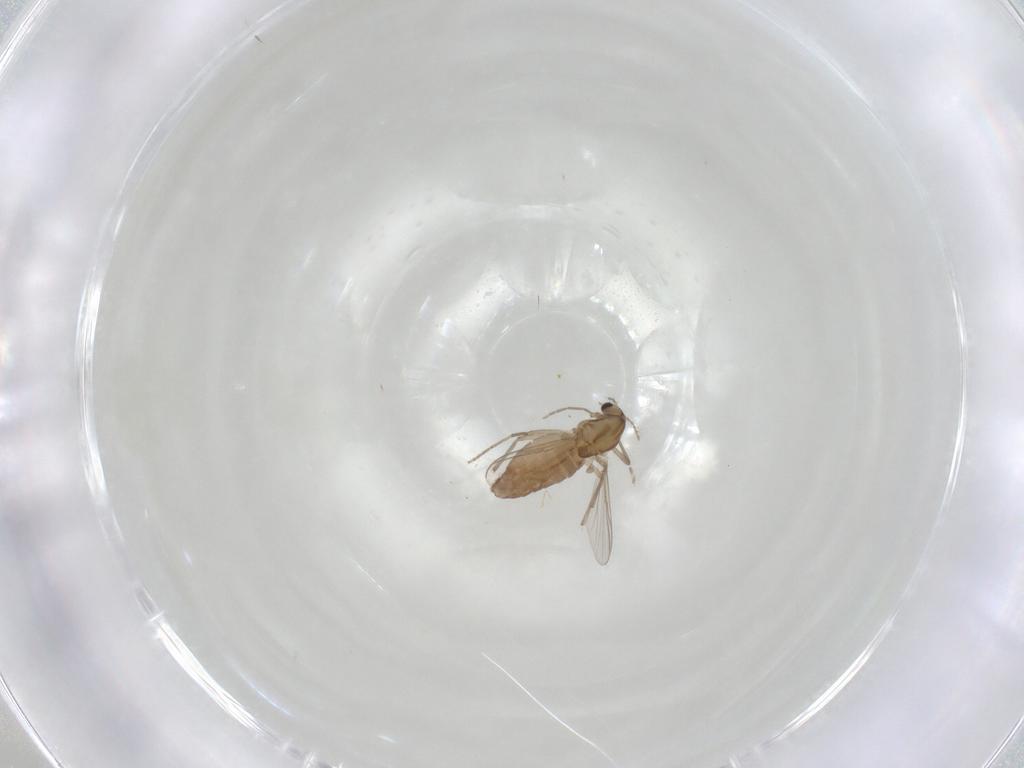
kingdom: Animalia
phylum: Arthropoda
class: Insecta
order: Diptera
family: Chironomidae
